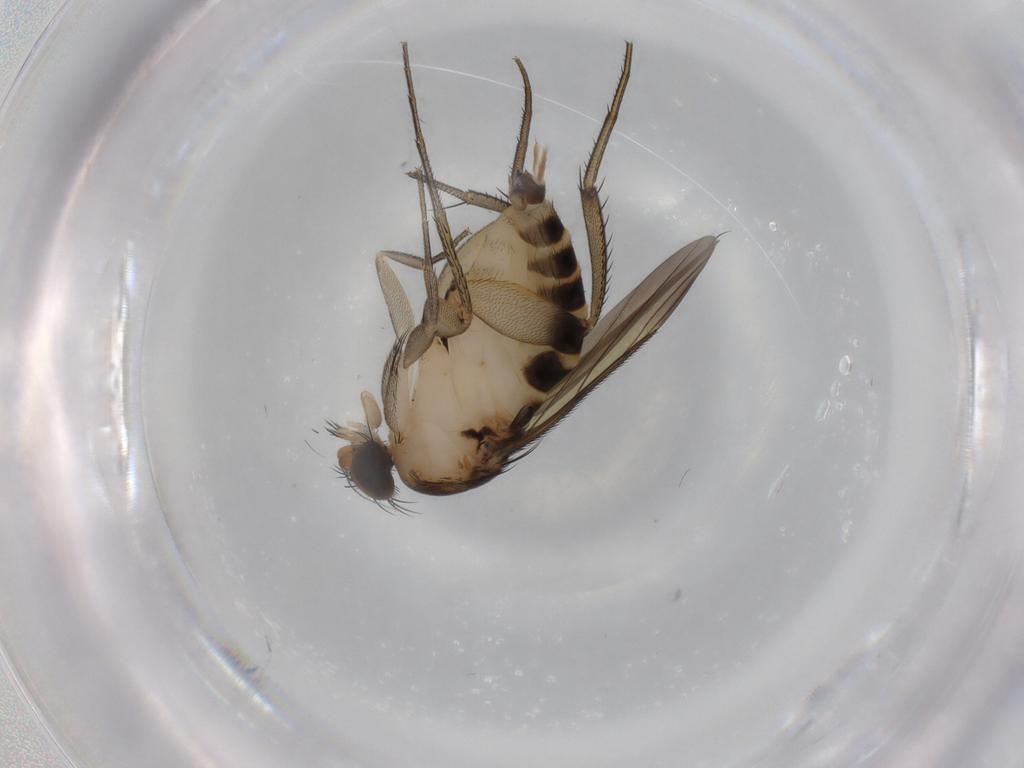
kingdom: Animalia
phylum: Arthropoda
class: Insecta
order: Diptera
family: Phoridae
